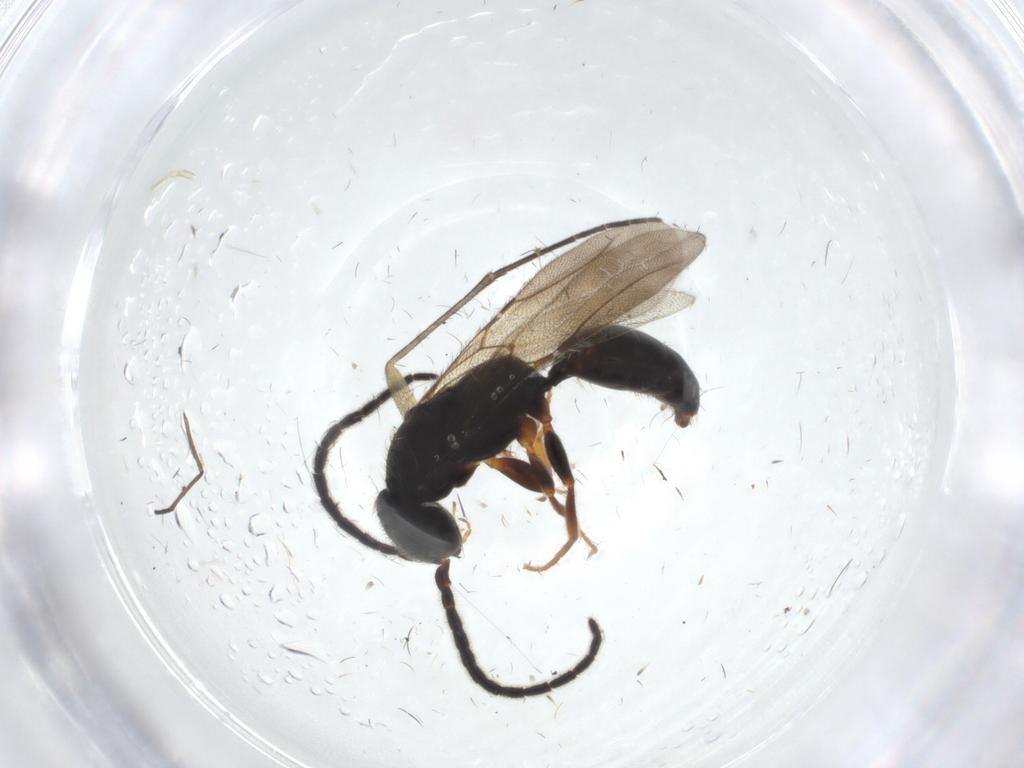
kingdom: Animalia
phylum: Arthropoda
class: Insecta
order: Hymenoptera
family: Bethylidae
